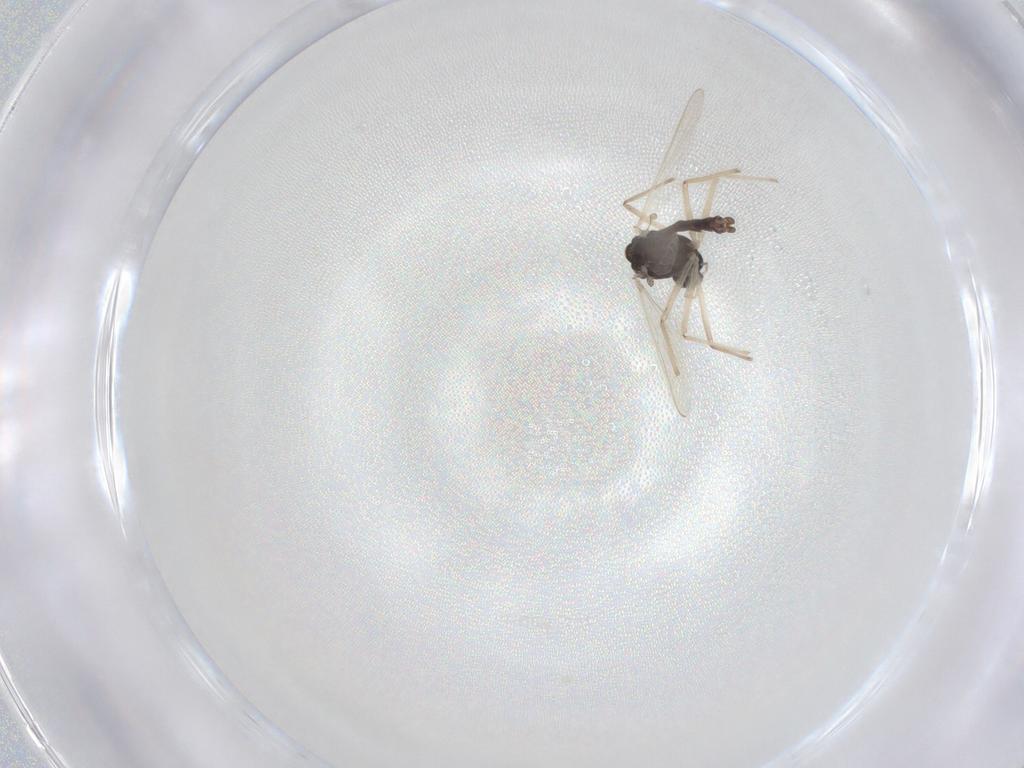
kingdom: Animalia
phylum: Arthropoda
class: Insecta
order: Diptera
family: Chironomidae
